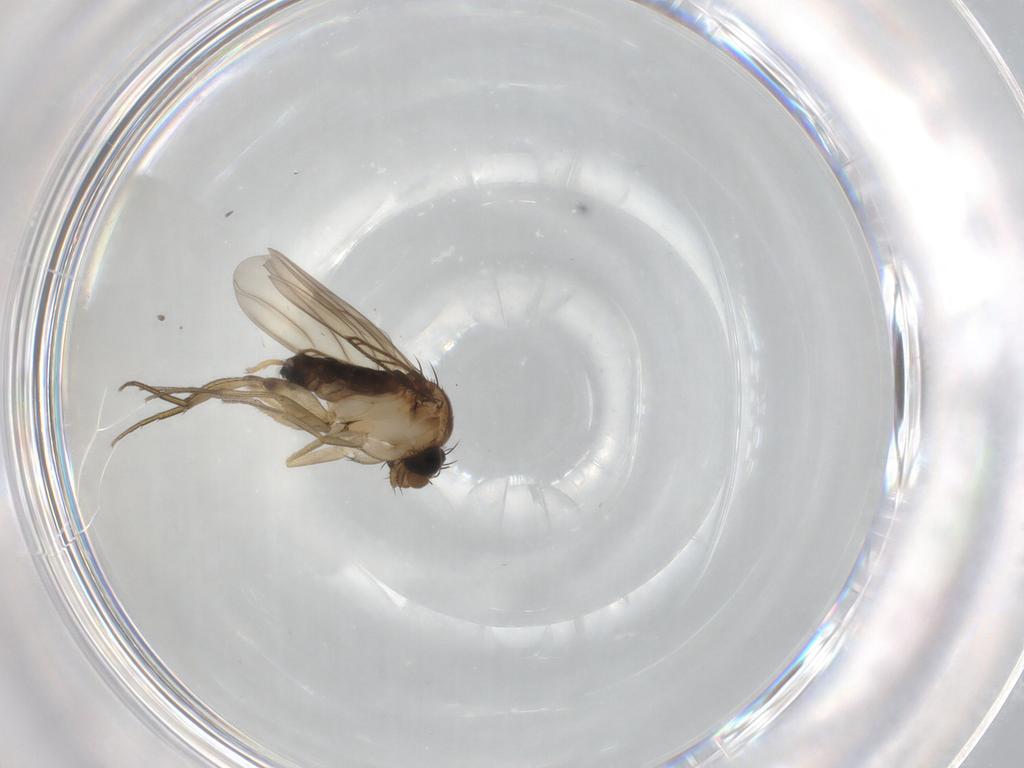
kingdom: Animalia
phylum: Arthropoda
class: Insecta
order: Diptera
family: Phoridae
